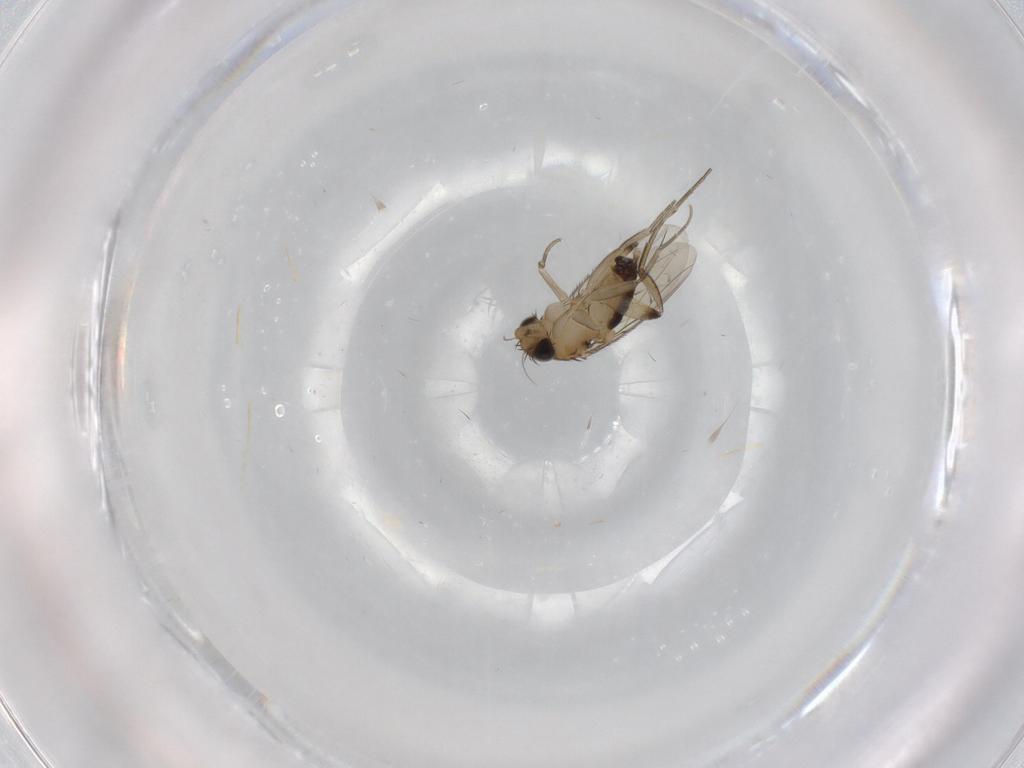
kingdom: Animalia
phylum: Arthropoda
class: Insecta
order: Diptera
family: Phoridae
